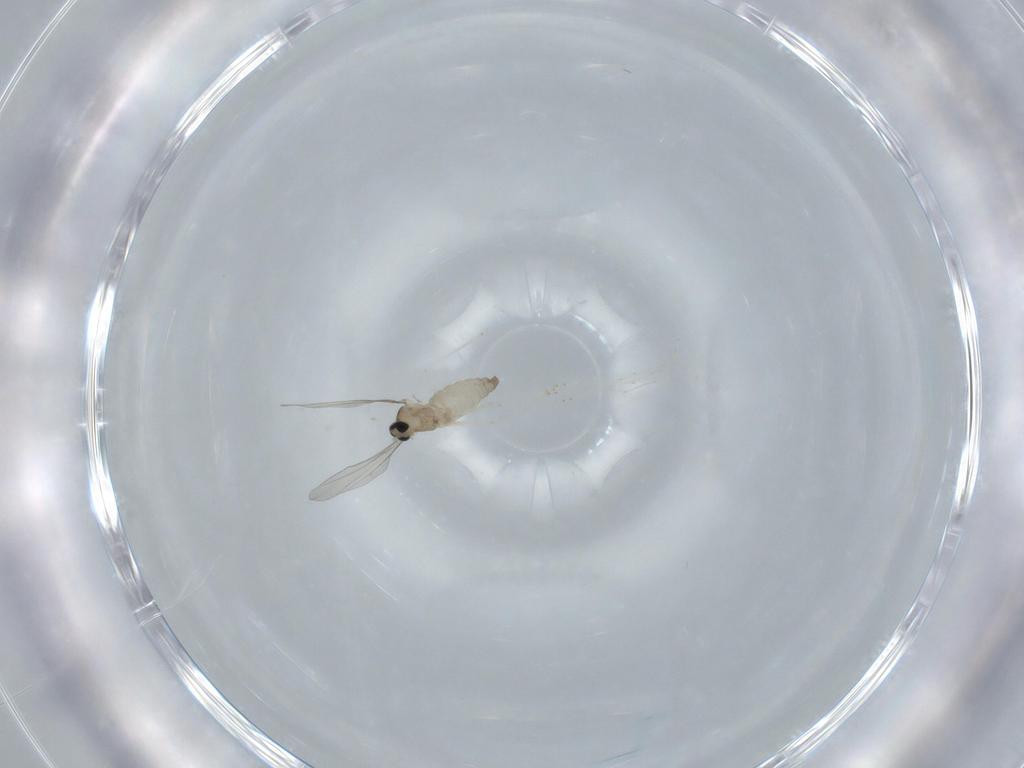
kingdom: Animalia
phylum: Arthropoda
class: Insecta
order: Diptera
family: Cecidomyiidae
